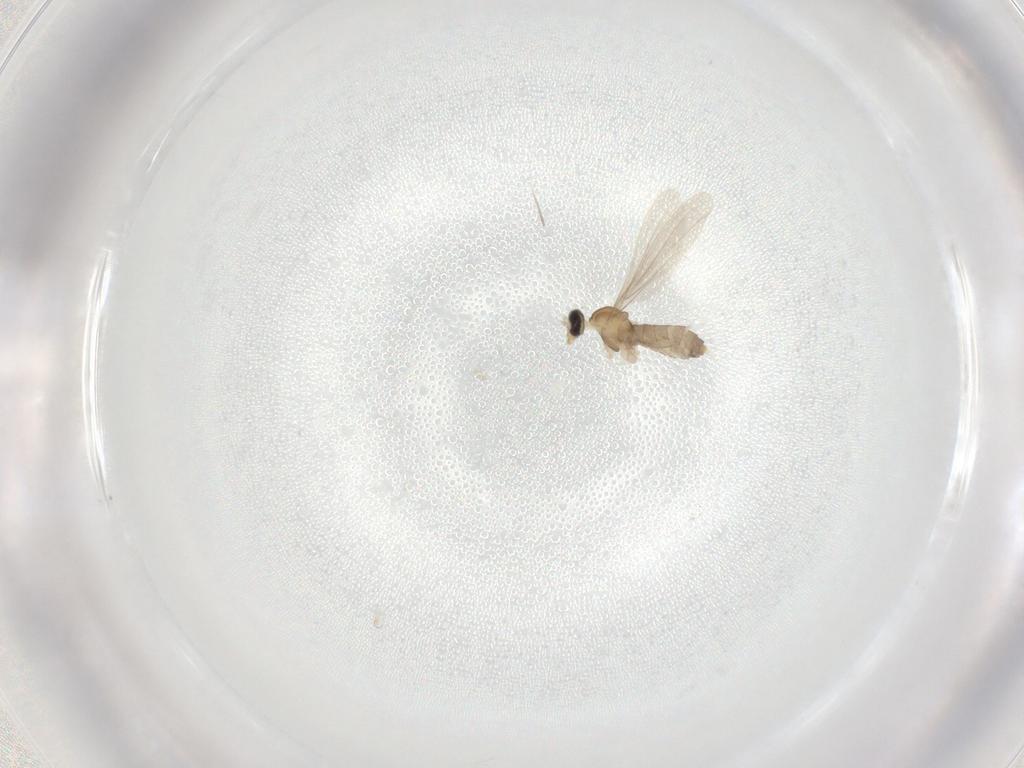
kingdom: Animalia
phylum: Arthropoda
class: Insecta
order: Diptera
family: Cecidomyiidae
